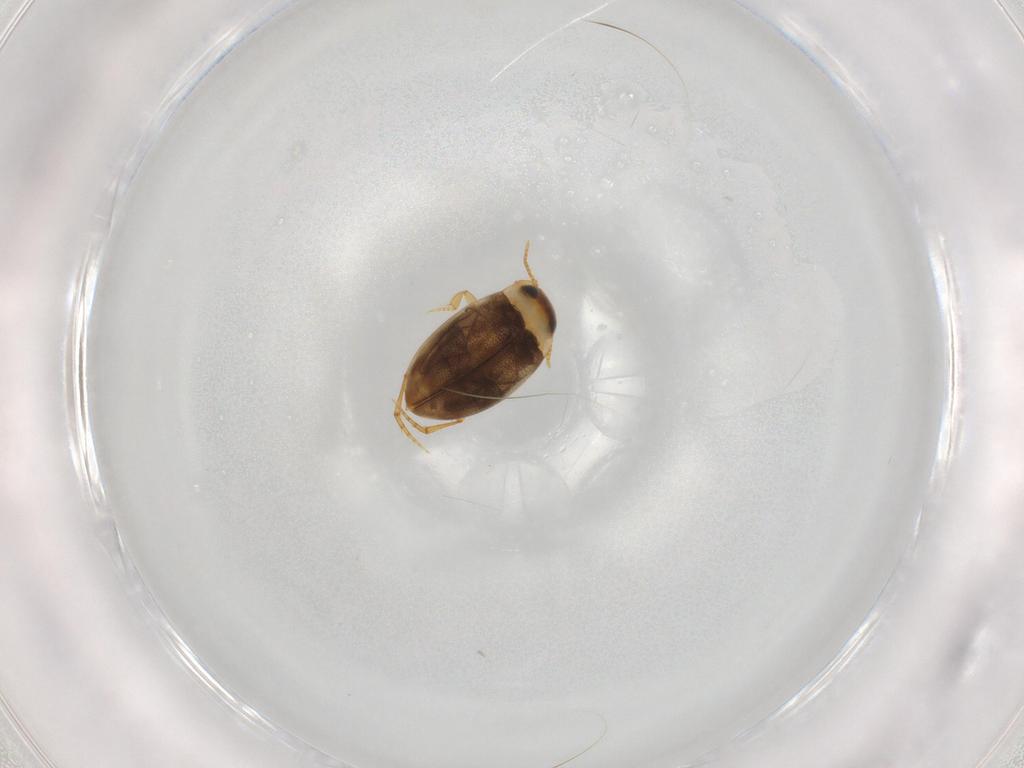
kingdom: Animalia
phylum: Arthropoda
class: Insecta
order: Coleoptera
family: Dytiscidae
